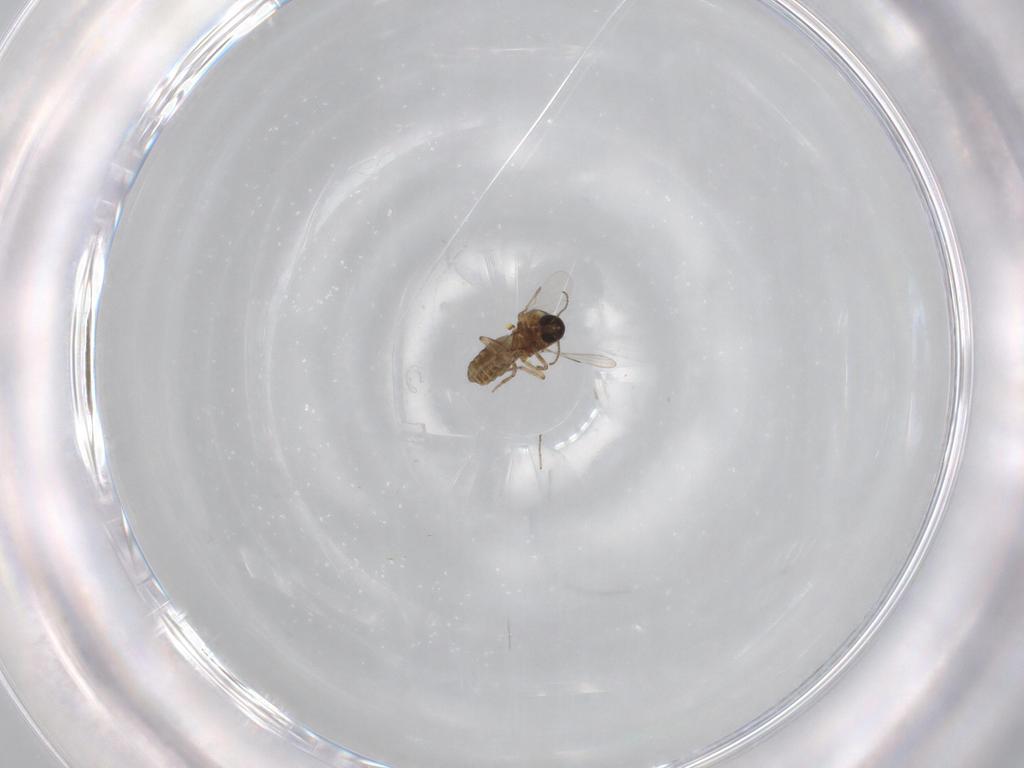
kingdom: Animalia
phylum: Arthropoda
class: Insecta
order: Diptera
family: Ceratopogonidae
